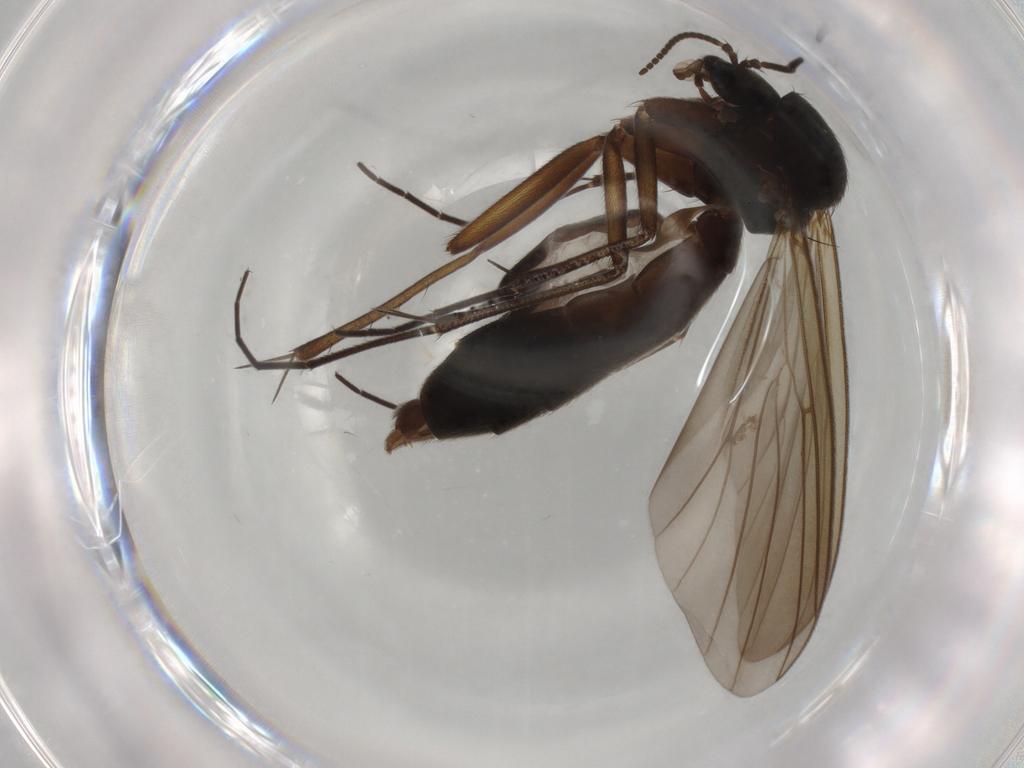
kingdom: Animalia
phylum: Arthropoda
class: Insecta
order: Diptera
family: Mycetophilidae
